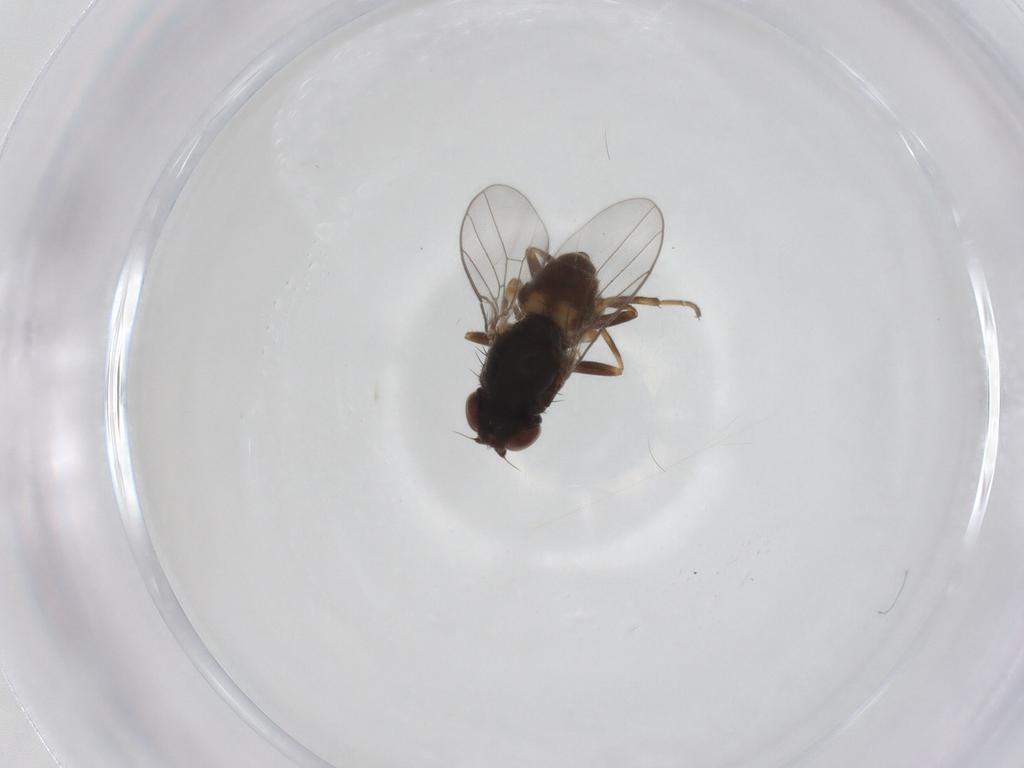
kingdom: Animalia
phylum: Arthropoda
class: Insecta
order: Diptera
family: Chloropidae
